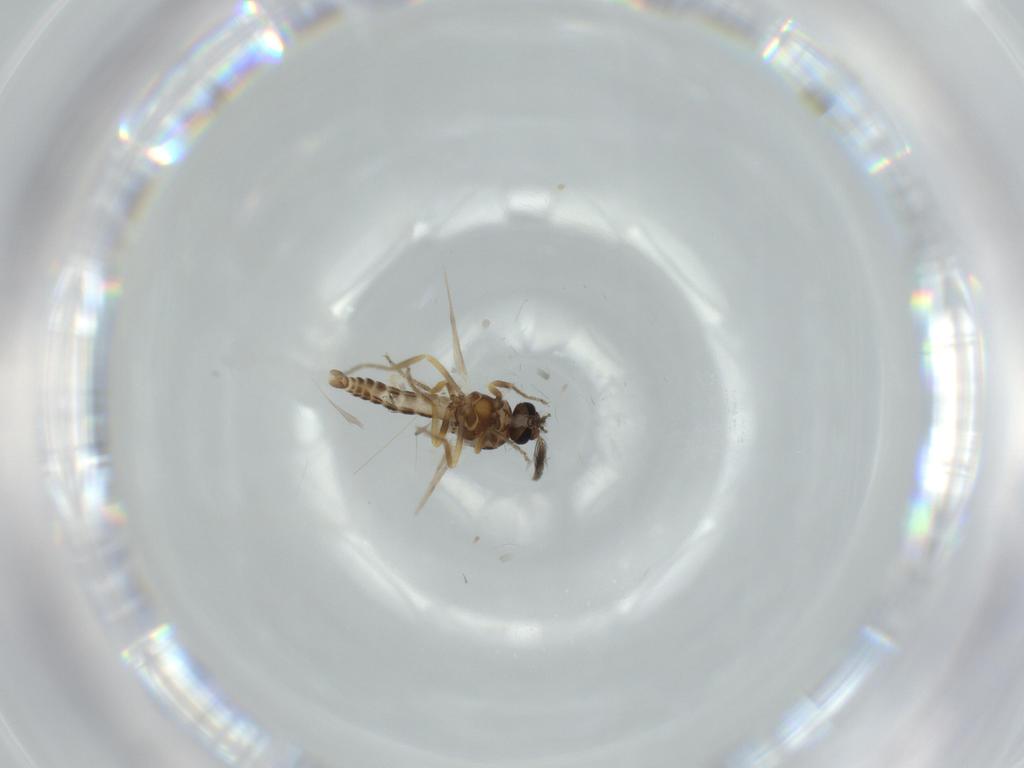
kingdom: Animalia
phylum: Arthropoda
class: Insecta
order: Diptera
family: Ceratopogonidae
